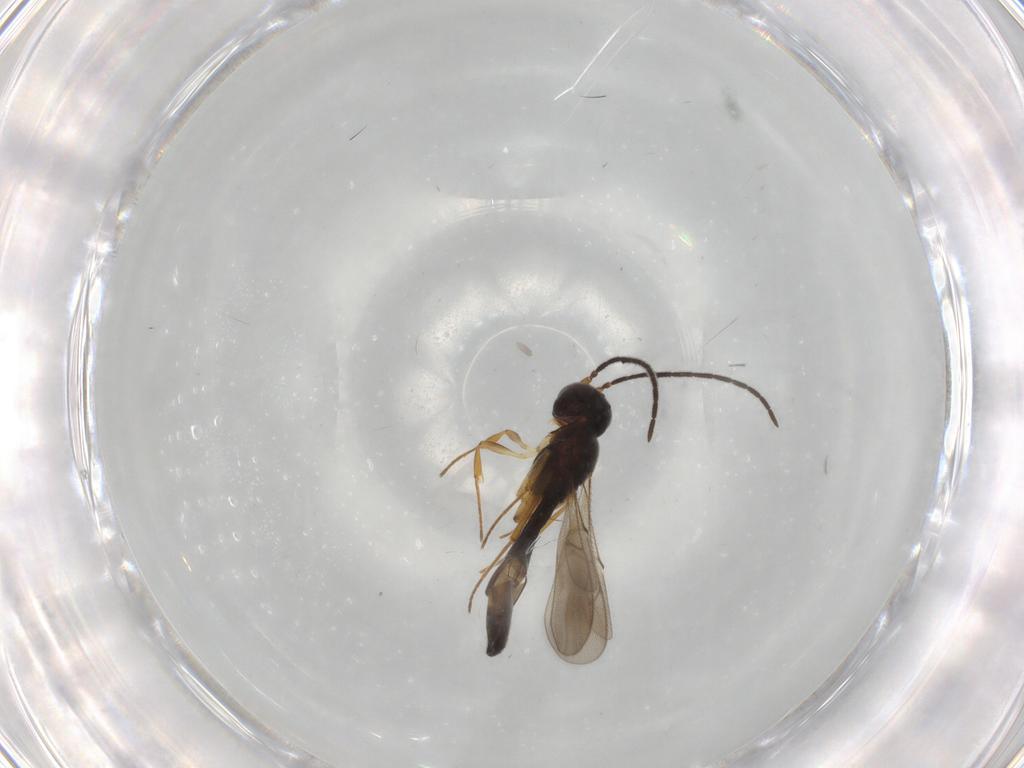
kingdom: Animalia
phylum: Arthropoda
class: Insecta
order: Hymenoptera
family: Scelionidae
